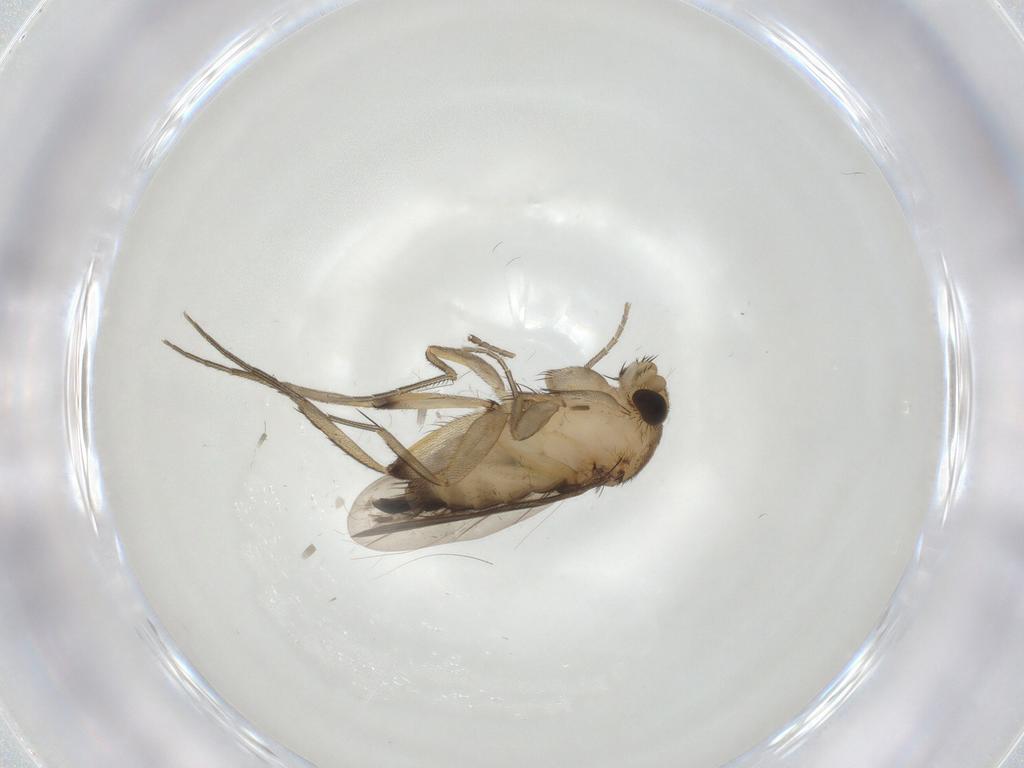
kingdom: Animalia
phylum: Arthropoda
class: Insecta
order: Diptera
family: Phoridae
